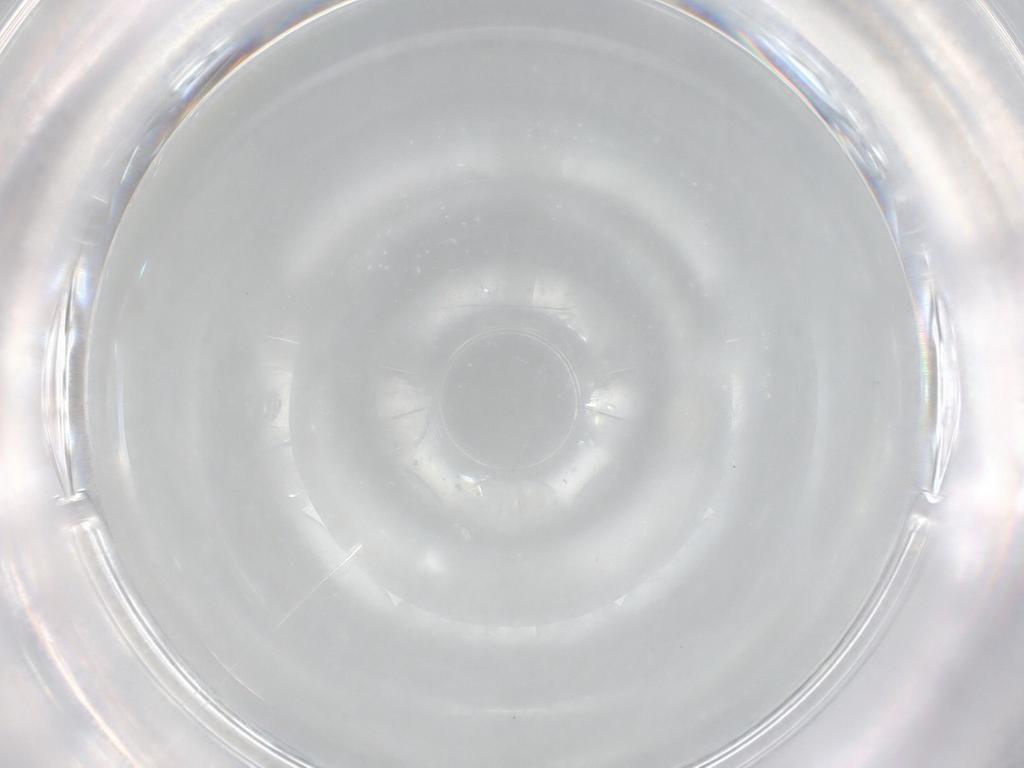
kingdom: Animalia
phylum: Arthropoda
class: Insecta
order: Diptera
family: Anthomyiidae
